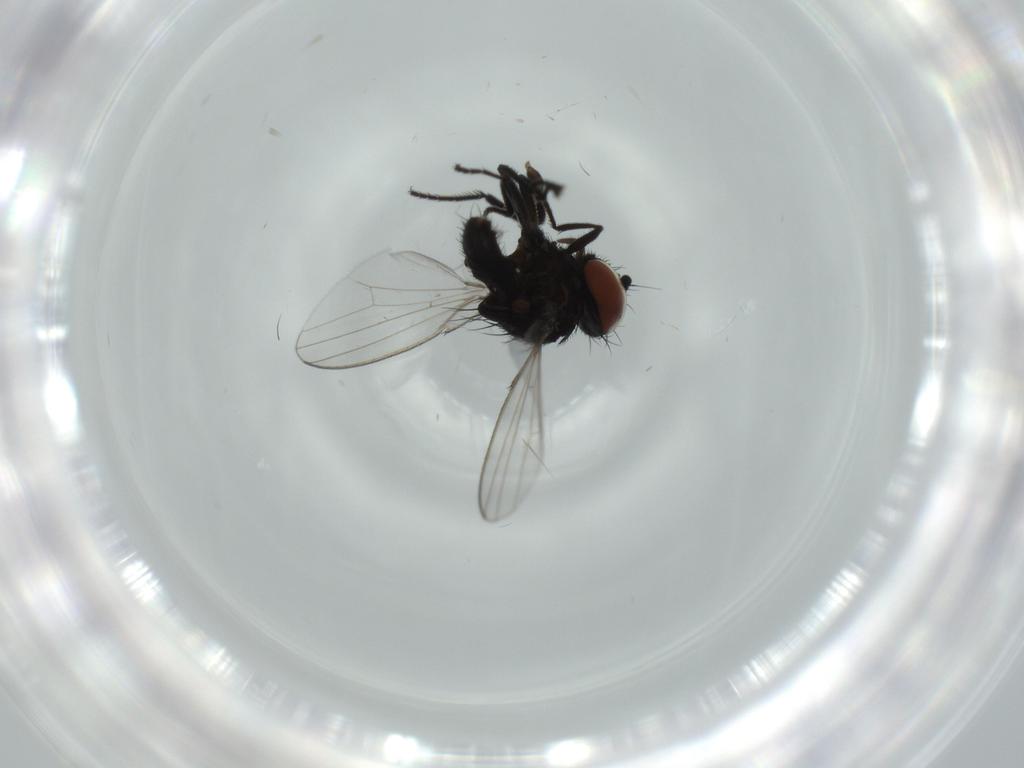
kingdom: Animalia
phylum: Arthropoda
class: Insecta
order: Diptera
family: Milichiidae
